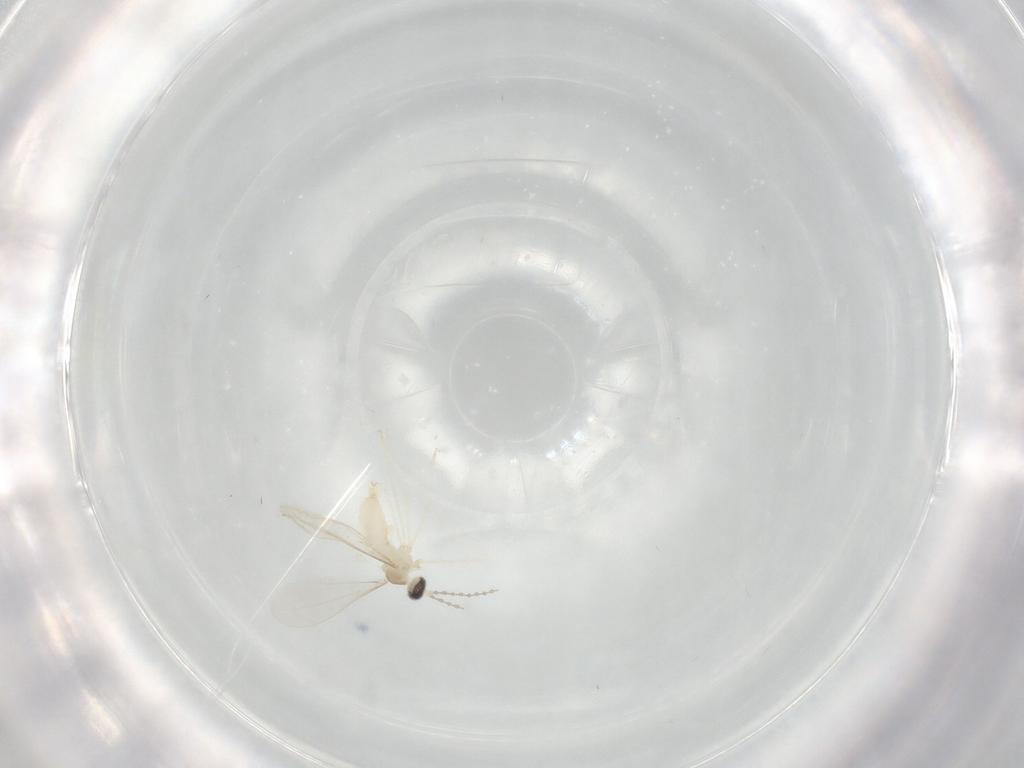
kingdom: Animalia
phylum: Arthropoda
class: Insecta
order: Diptera
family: Cecidomyiidae
